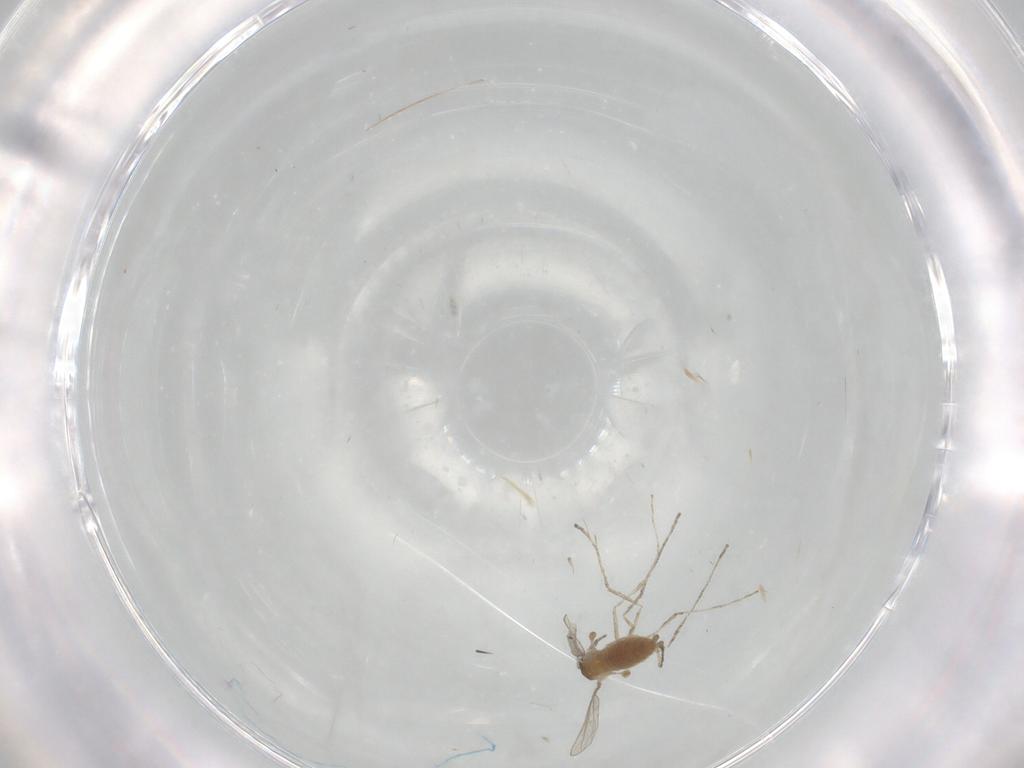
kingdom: Animalia
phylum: Arthropoda
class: Insecta
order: Diptera
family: Cecidomyiidae
